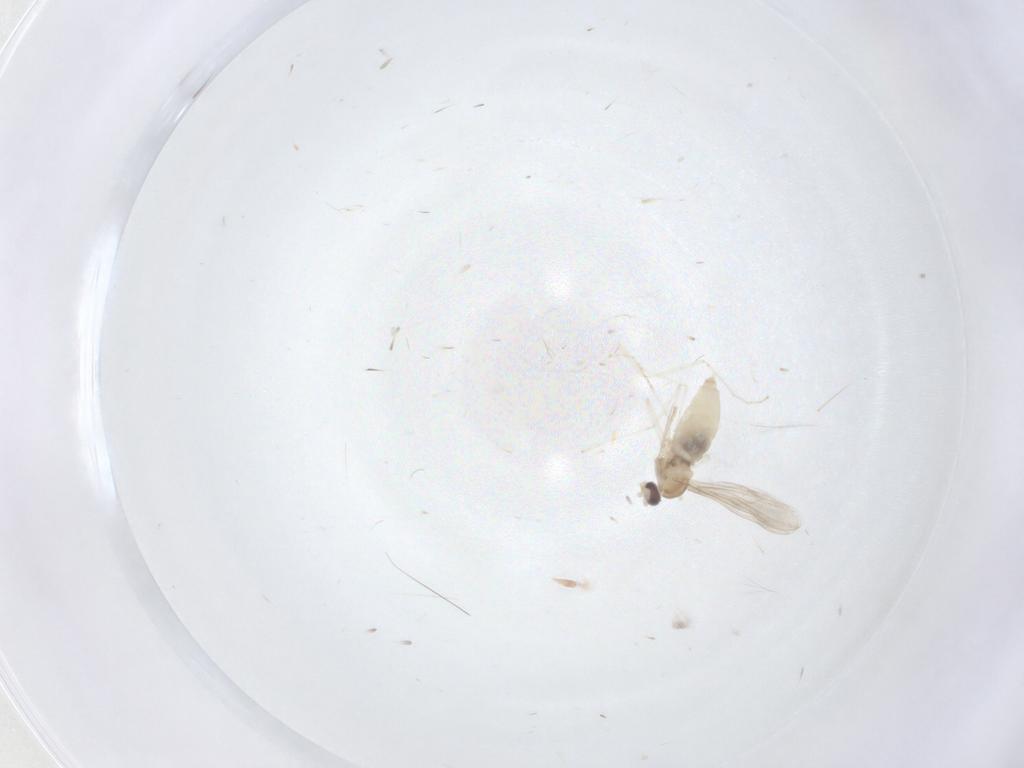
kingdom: Animalia
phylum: Arthropoda
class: Insecta
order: Diptera
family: Cecidomyiidae
